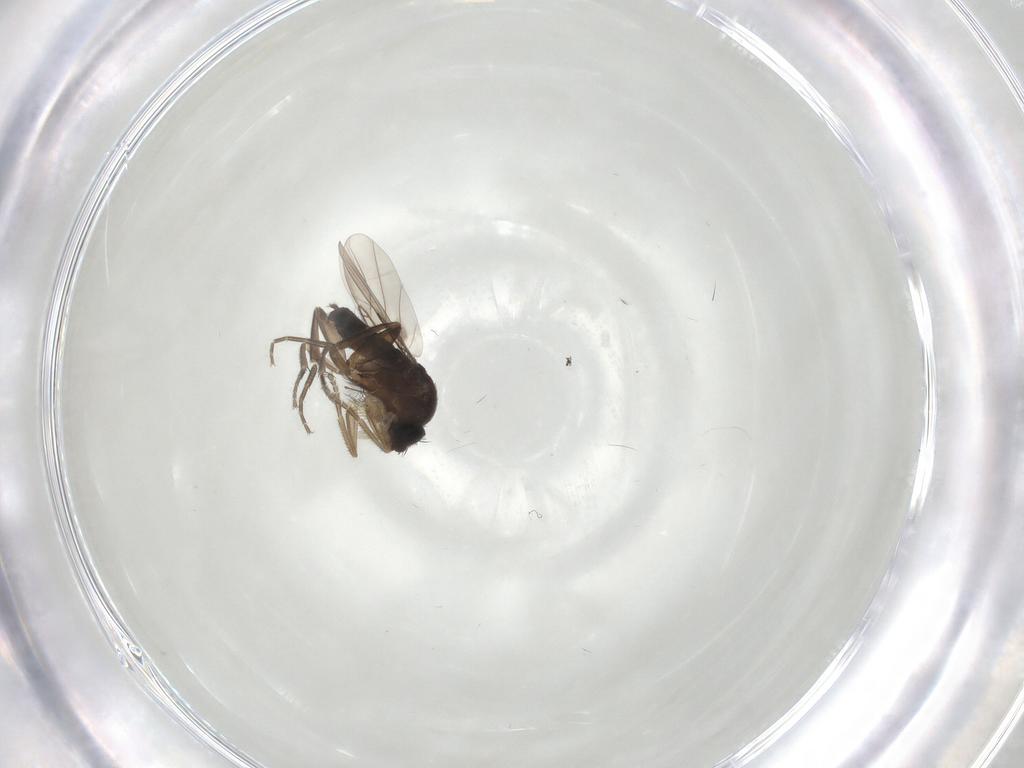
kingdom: Animalia
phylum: Arthropoda
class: Insecta
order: Diptera
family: Phoridae
